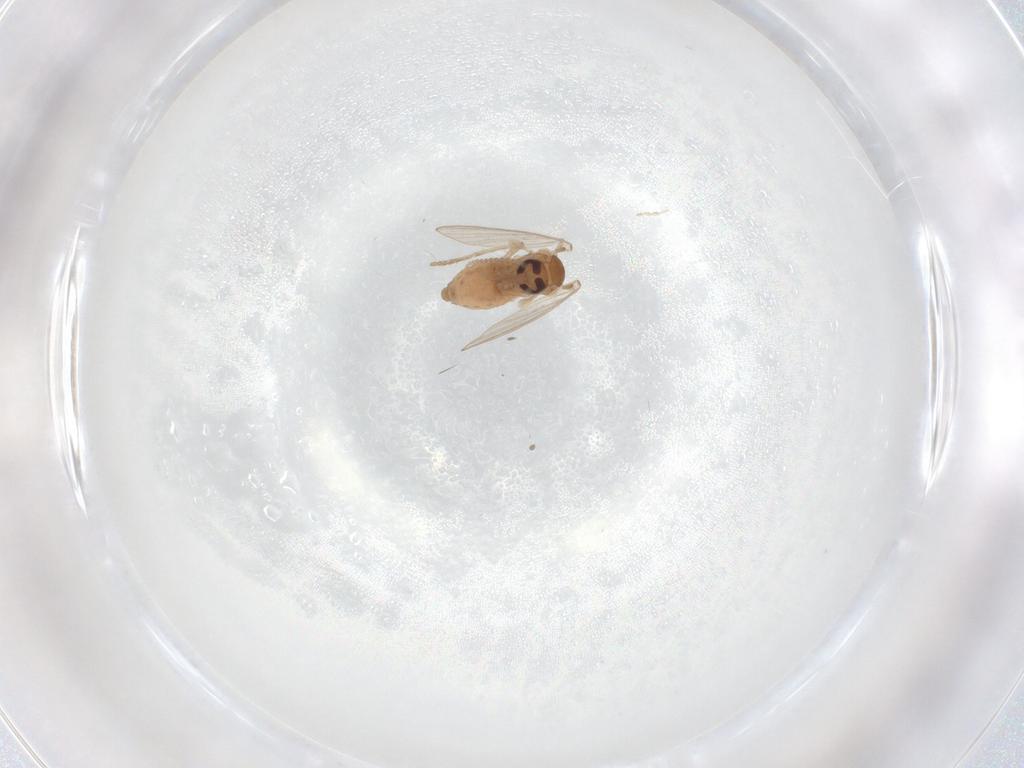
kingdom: Animalia
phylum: Arthropoda
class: Insecta
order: Diptera
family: Psychodidae
